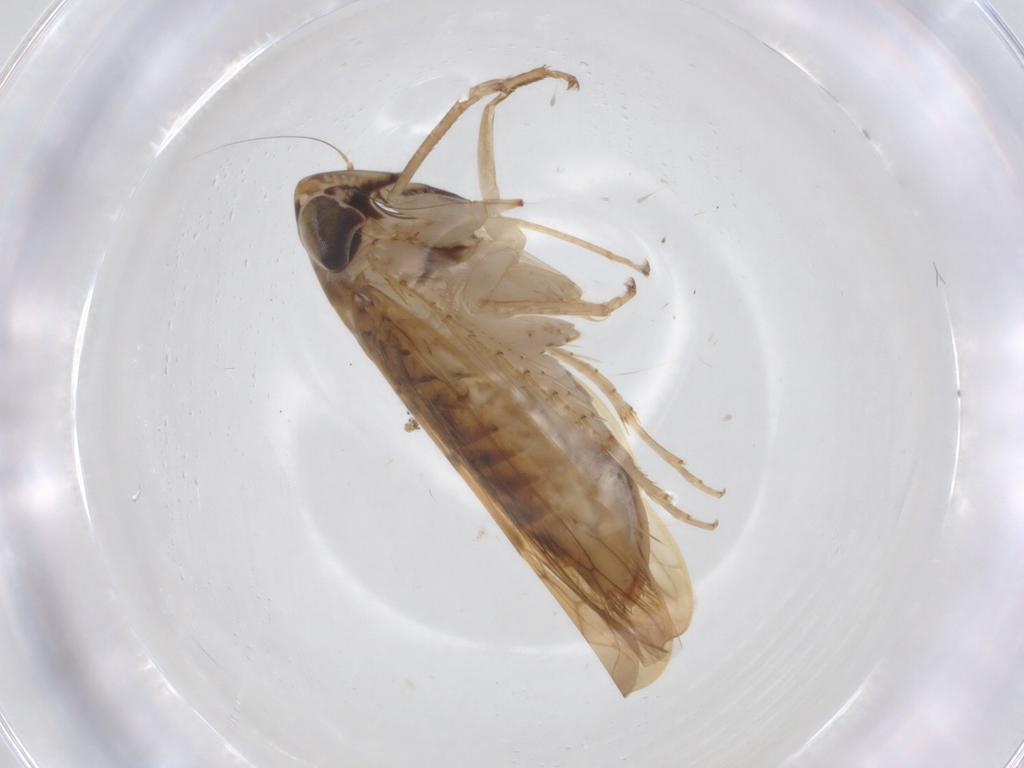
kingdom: Animalia
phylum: Arthropoda
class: Insecta
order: Hemiptera
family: Cicadellidae
